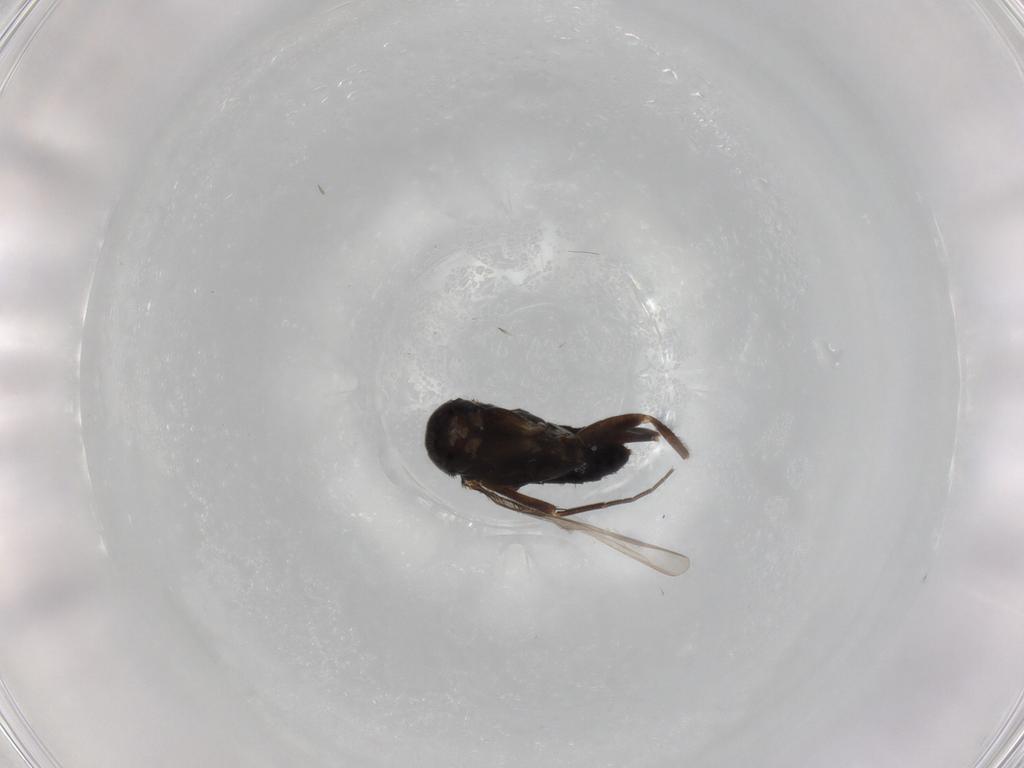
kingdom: Animalia
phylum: Arthropoda
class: Insecta
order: Diptera
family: Phoridae
